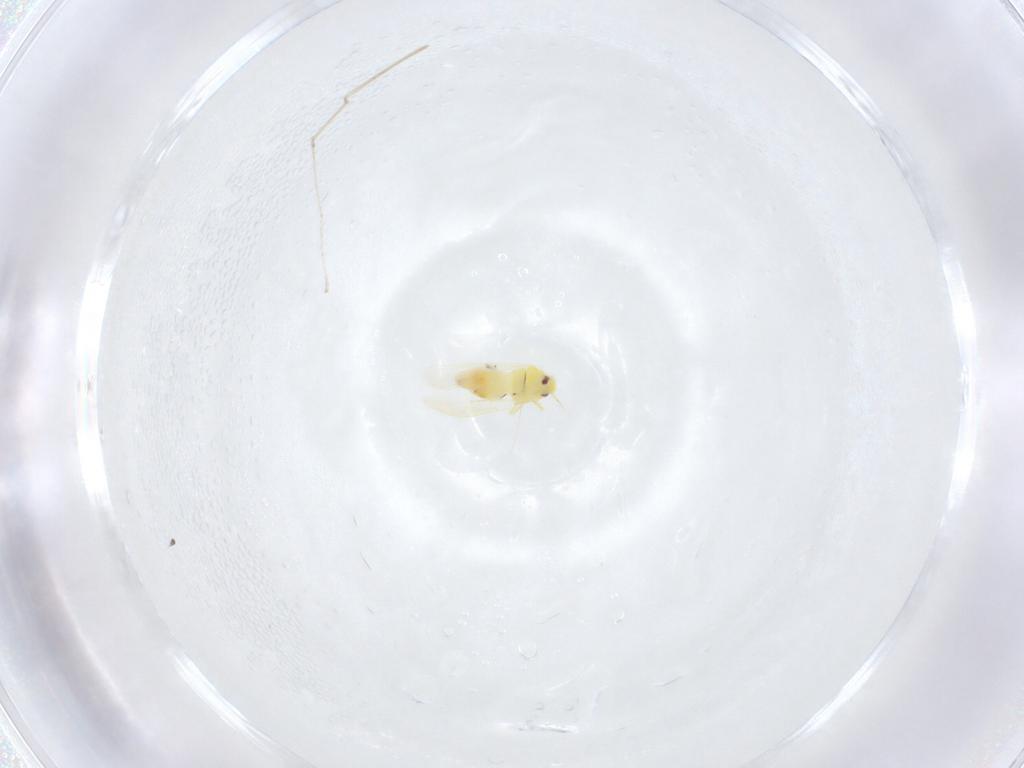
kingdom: Animalia
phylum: Arthropoda
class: Insecta
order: Hemiptera
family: Aleyrodidae
